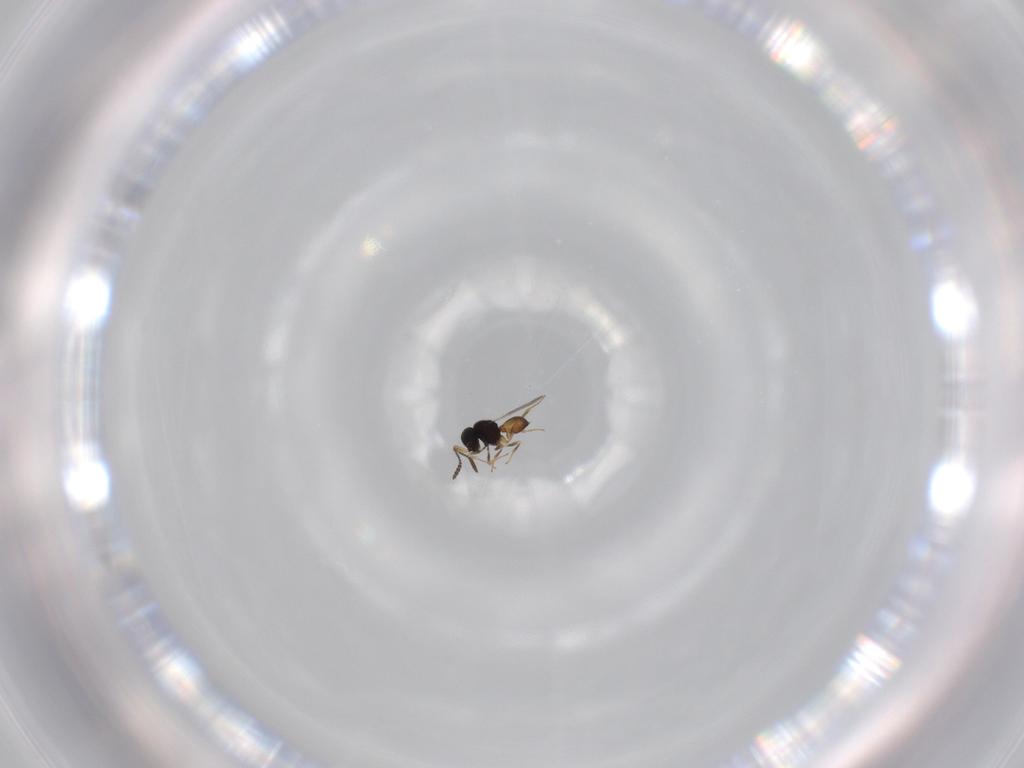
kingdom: Animalia
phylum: Arthropoda
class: Insecta
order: Hymenoptera
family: Scelionidae
